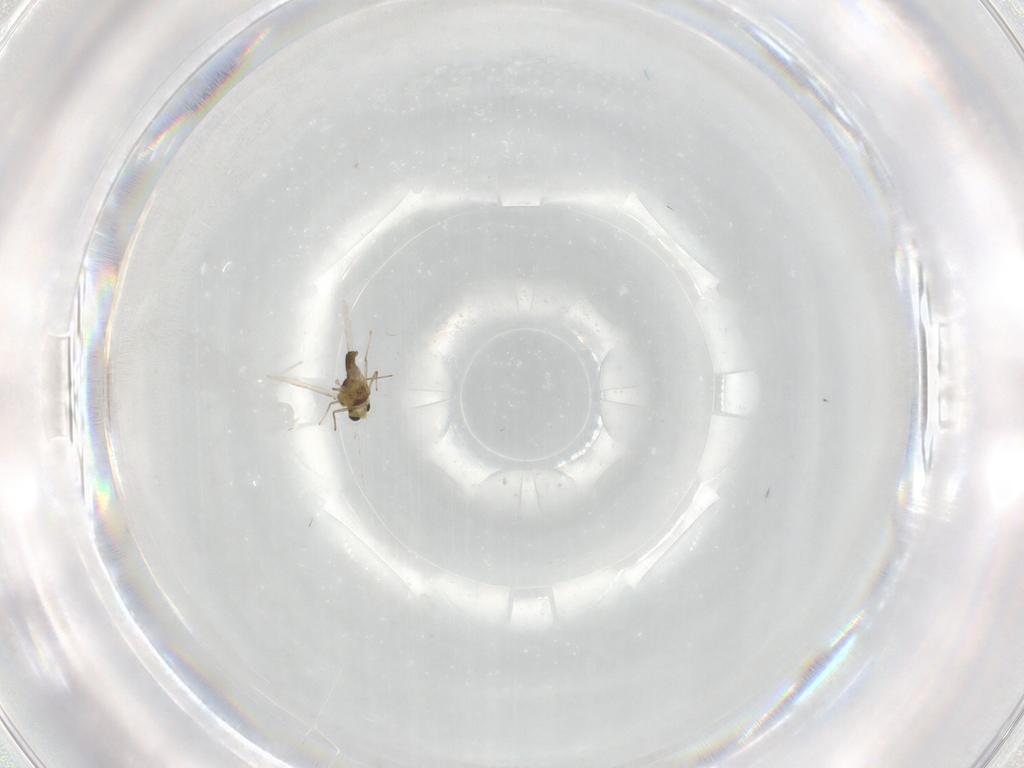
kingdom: Animalia
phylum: Arthropoda
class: Insecta
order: Diptera
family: Chironomidae
